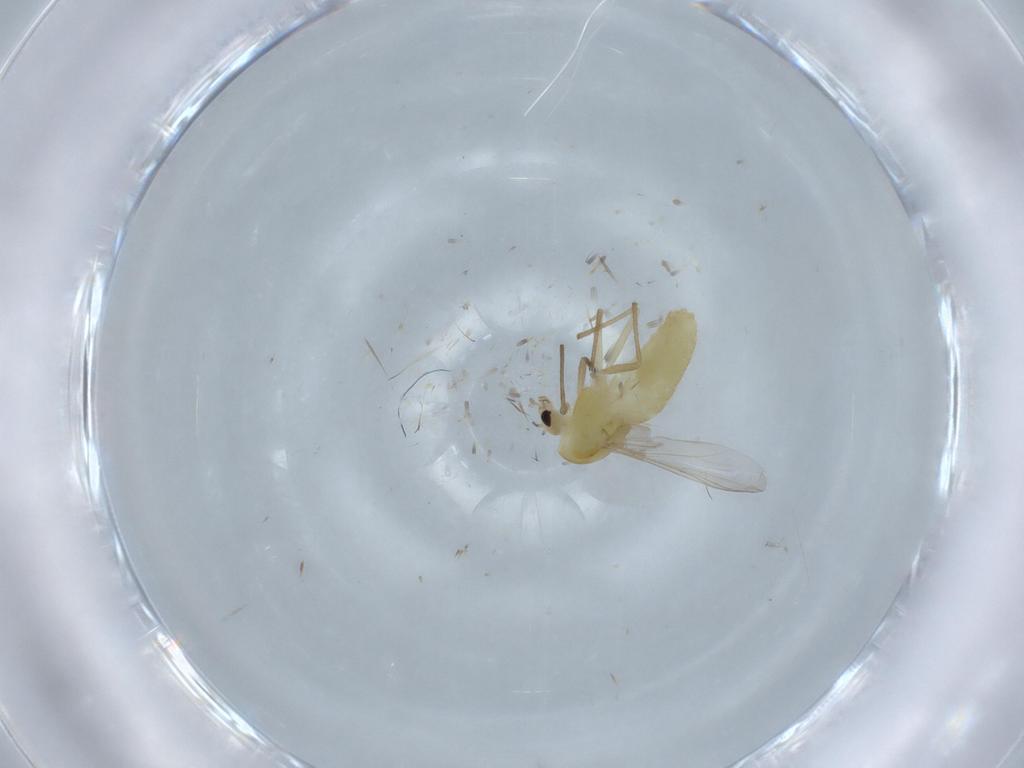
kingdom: Animalia
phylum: Arthropoda
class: Insecta
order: Diptera
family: Chironomidae
